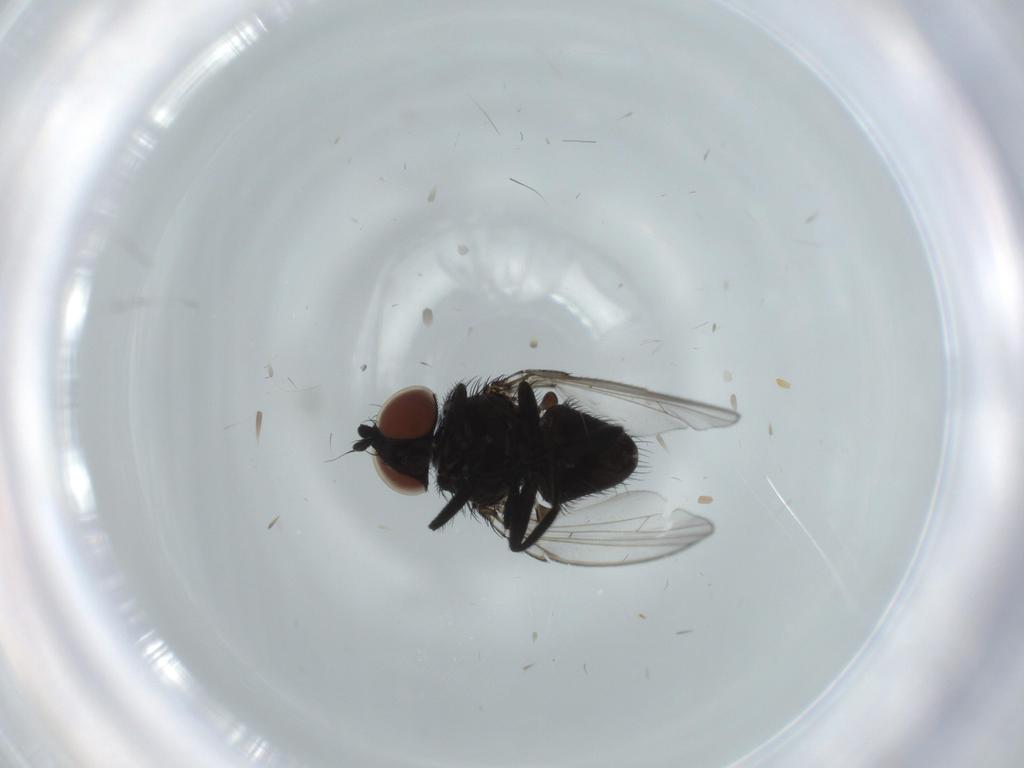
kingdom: Animalia
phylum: Arthropoda
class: Insecta
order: Diptera
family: Milichiidae
